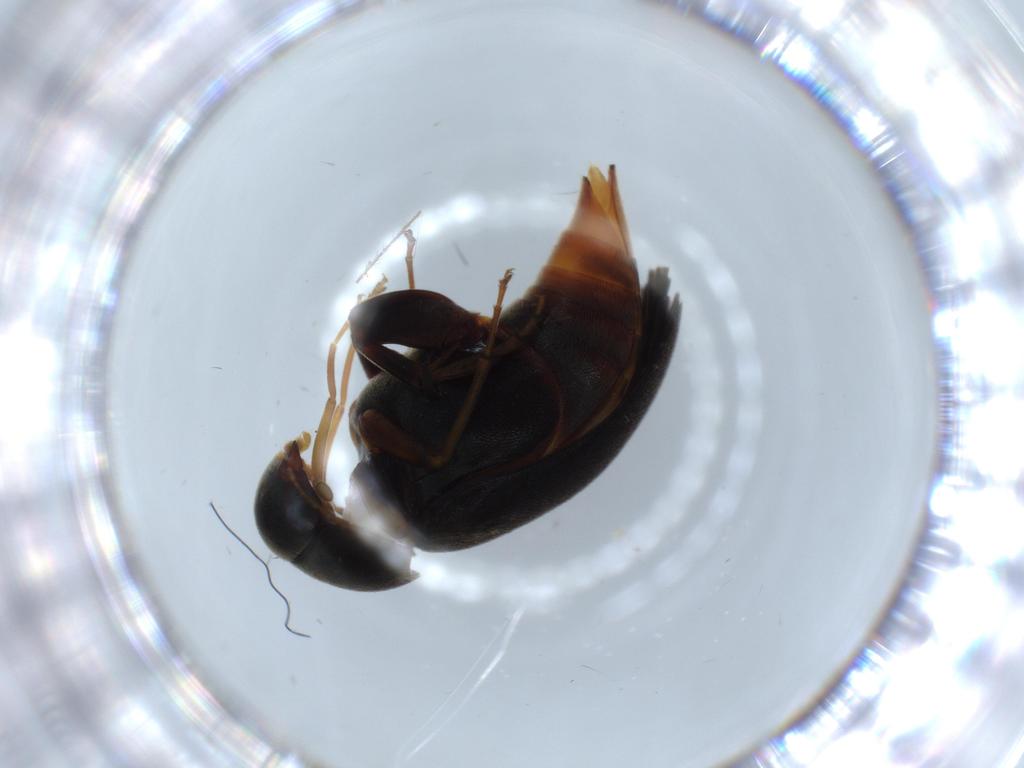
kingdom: Animalia
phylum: Arthropoda
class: Insecta
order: Coleoptera
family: Mordellidae
